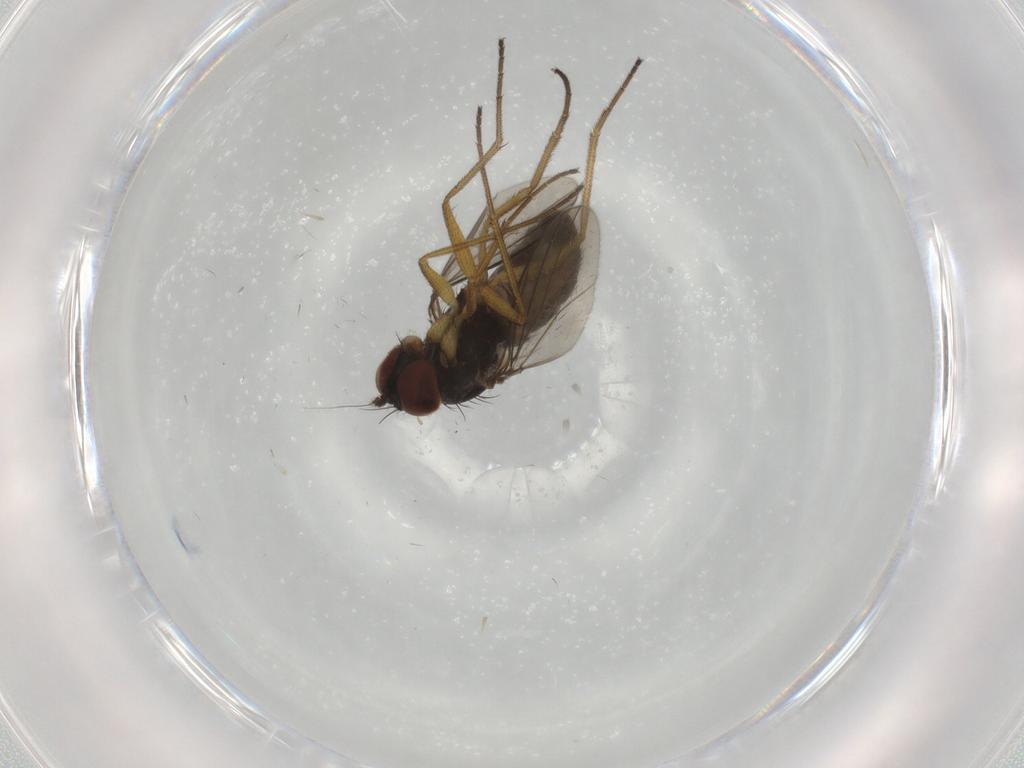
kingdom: Animalia
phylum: Arthropoda
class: Insecta
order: Diptera
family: Dolichopodidae
